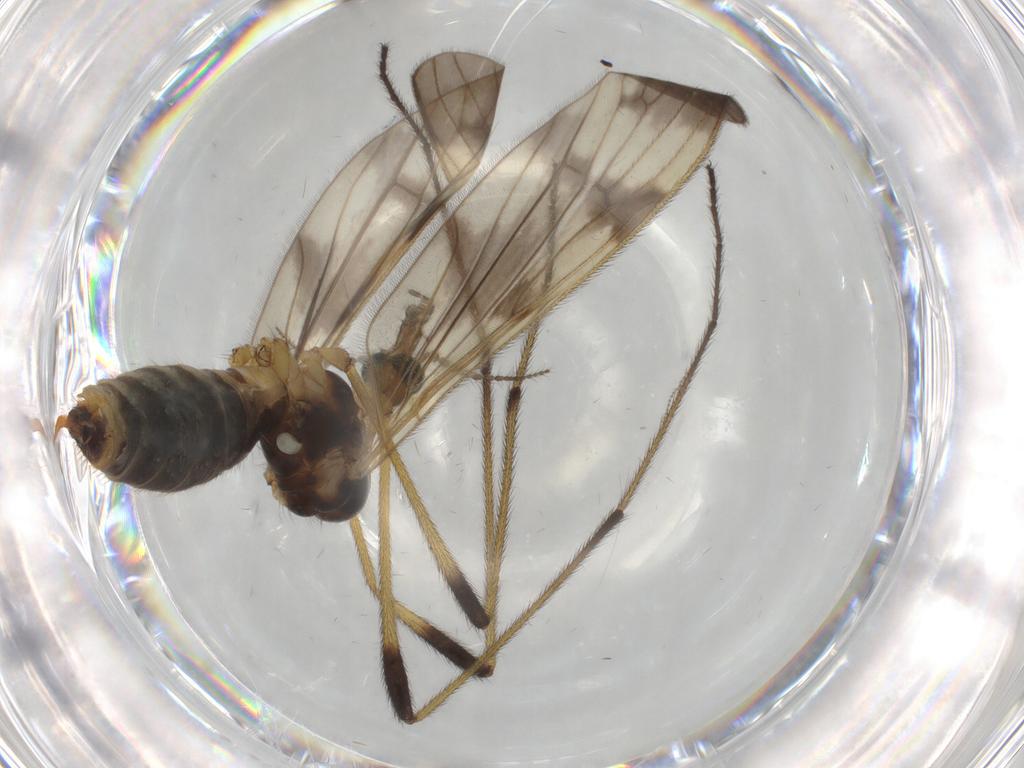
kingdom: Animalia
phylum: Arthropoda
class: Insecta
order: Diptera
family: Limoniidae
